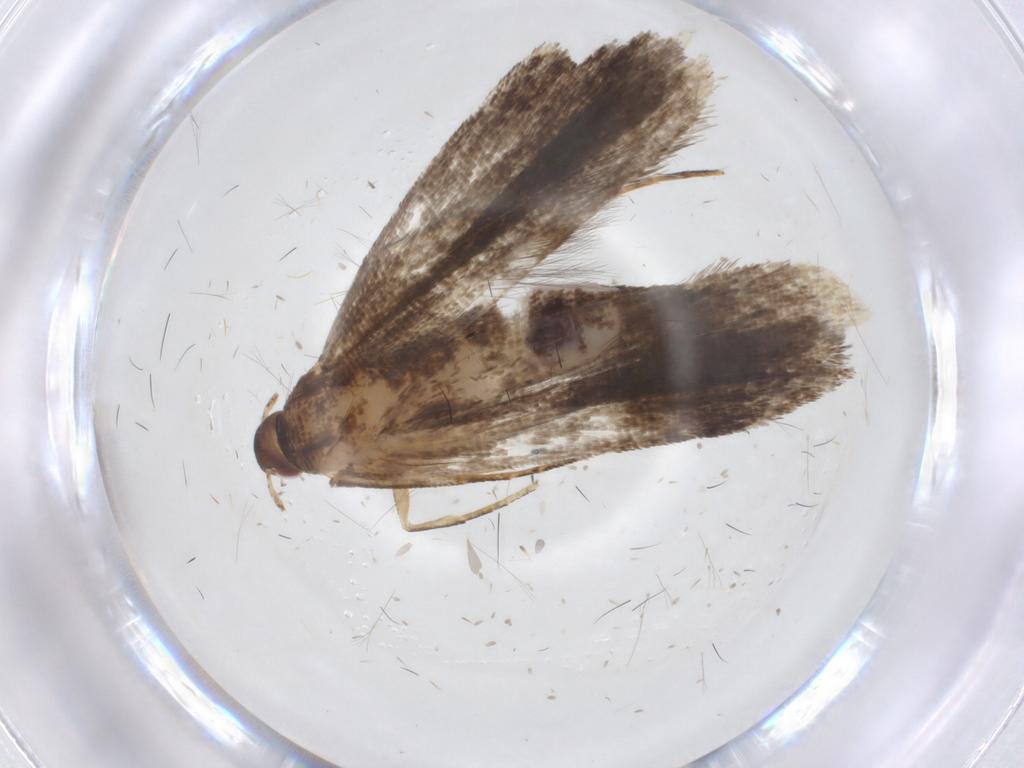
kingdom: Animalia
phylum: Arthropoda
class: Insecta
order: Lepidoptera
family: Gelechiidae
